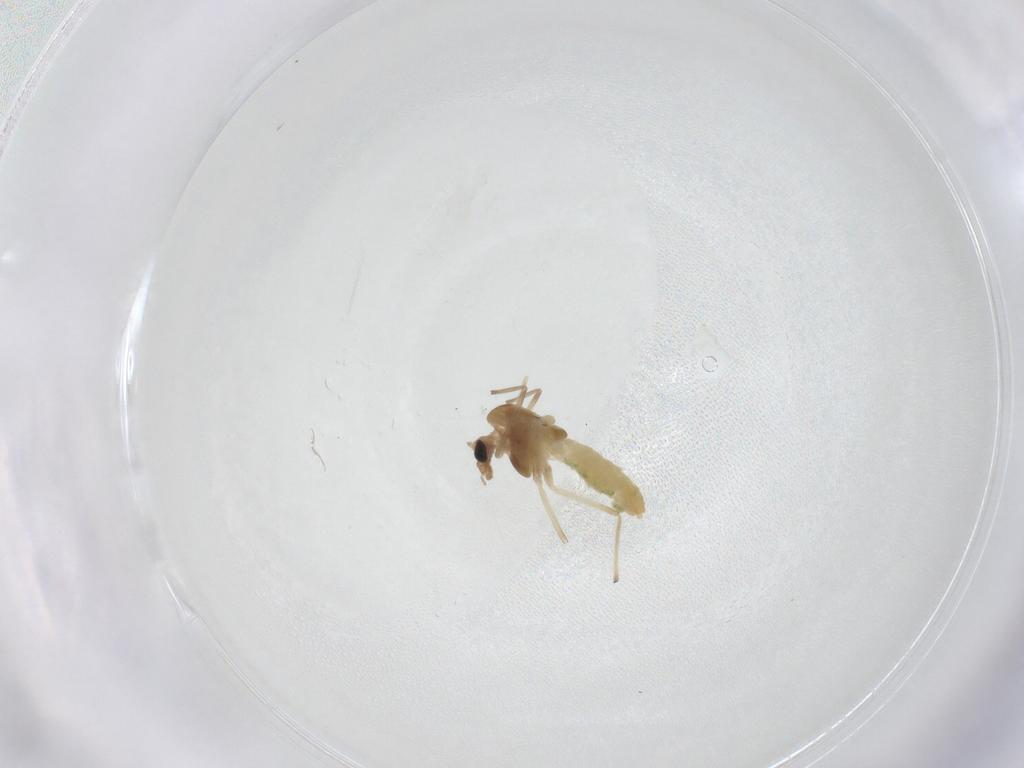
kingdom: Animalia
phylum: Arthropoda
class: Insecta
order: Diptera
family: Chironomidae
